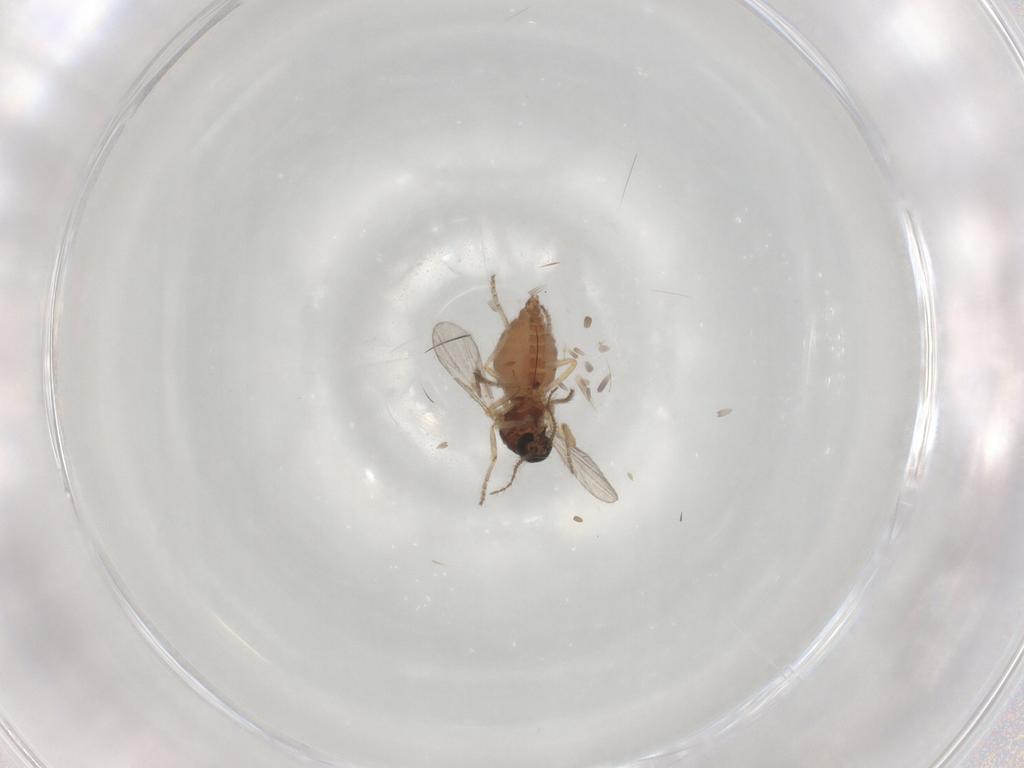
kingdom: Animalia
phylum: Arthropoda
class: Insecta
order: Diptera
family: Ceratopogonidae
